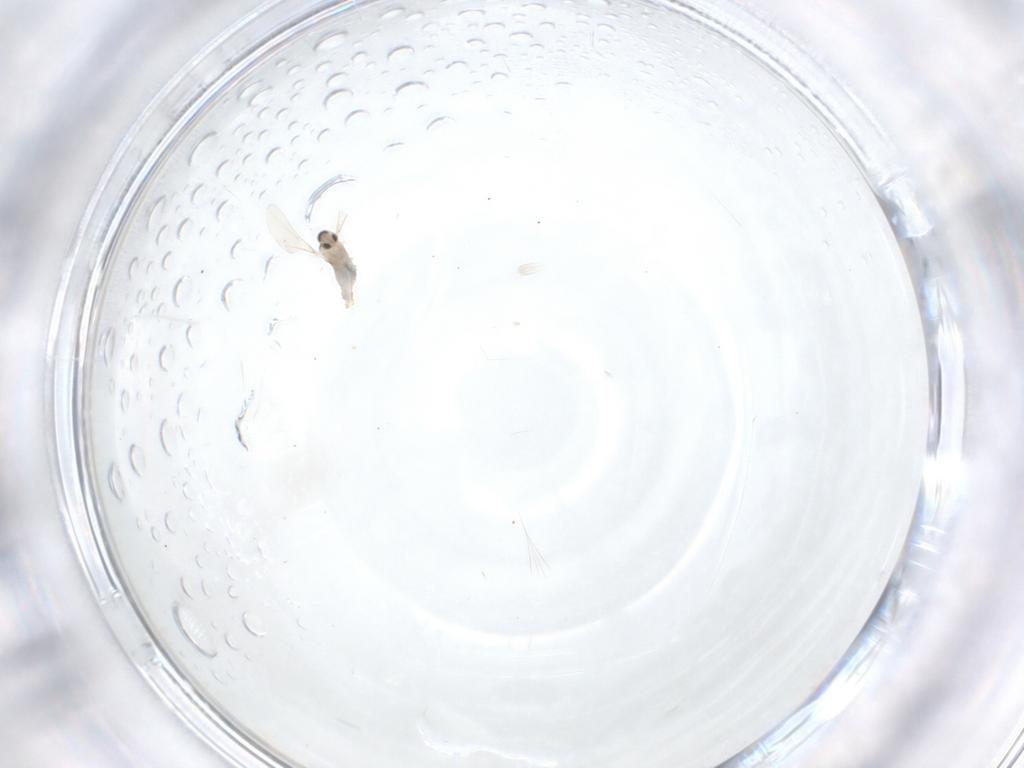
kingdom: Animalia
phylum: Arthropoda
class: Insecta
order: Diptera
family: Cecidomyiidae
